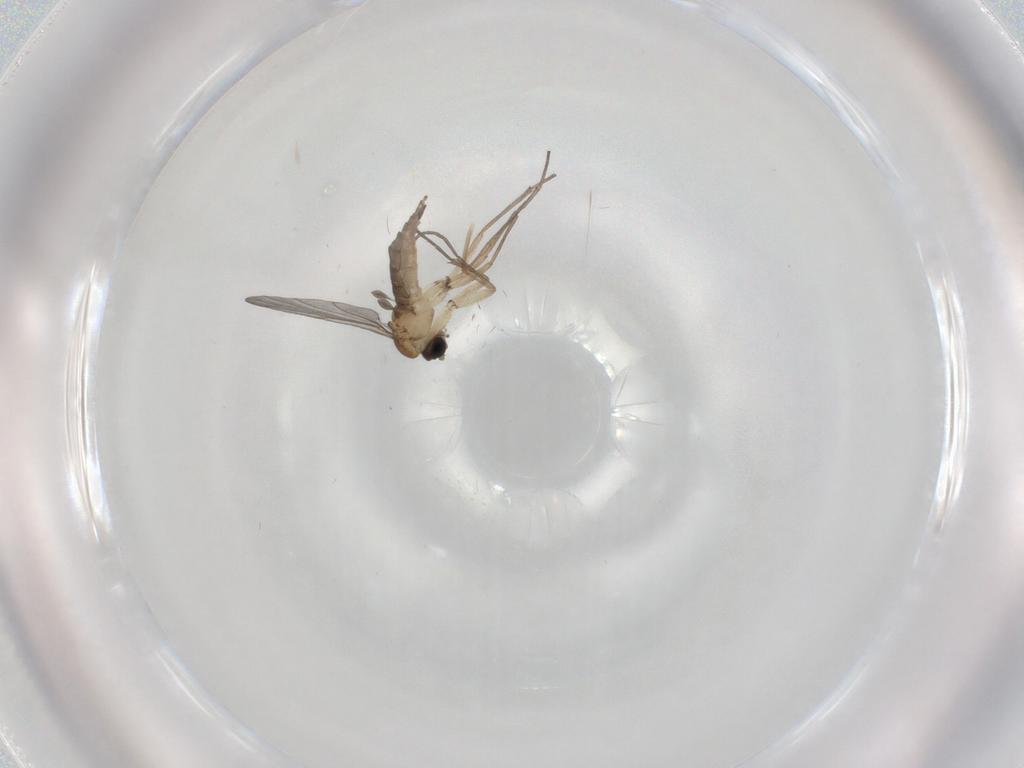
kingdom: Animalia
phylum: Arthropoda
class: Insecta
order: Diptera
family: Sciaridae
